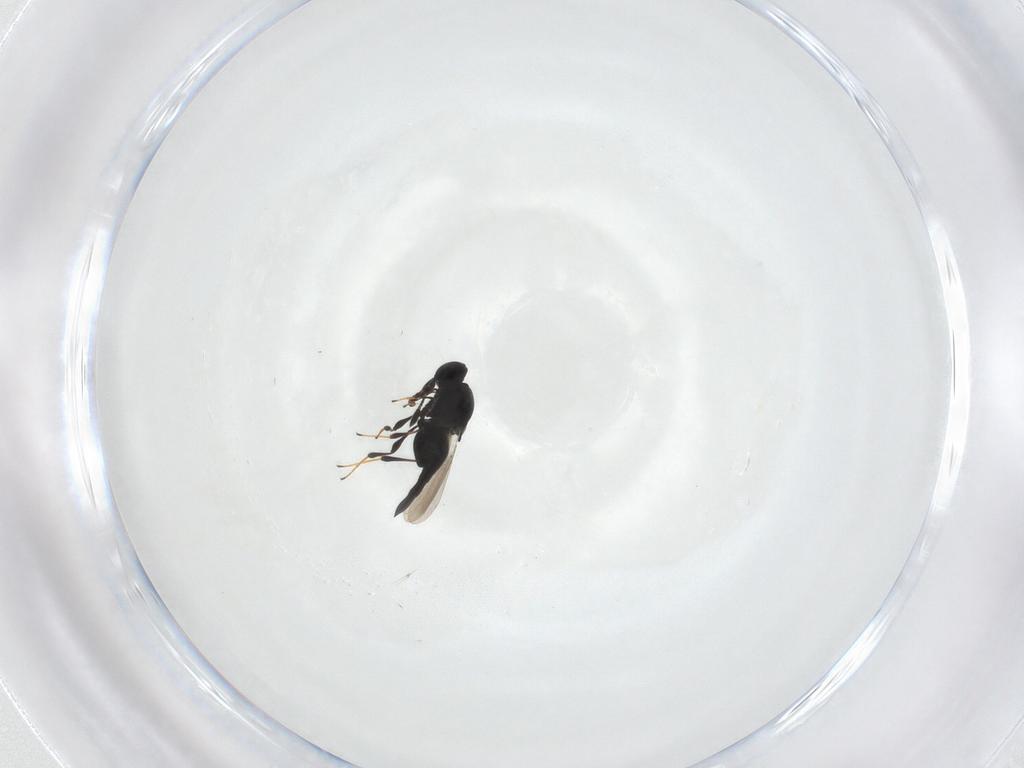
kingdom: Animalia
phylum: Arthropoda
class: Insecta
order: Hymenoptera
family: Platygastridae
